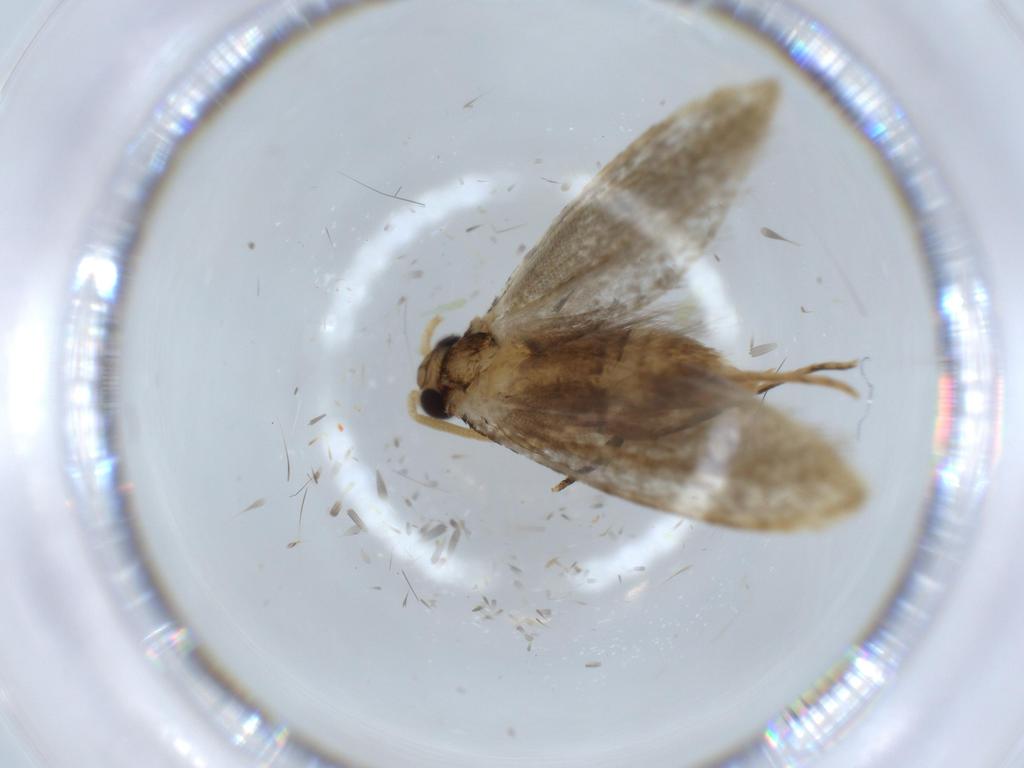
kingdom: Animalia
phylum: Arthropoda
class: Insecta
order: Lepidoptera
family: Tineidae
